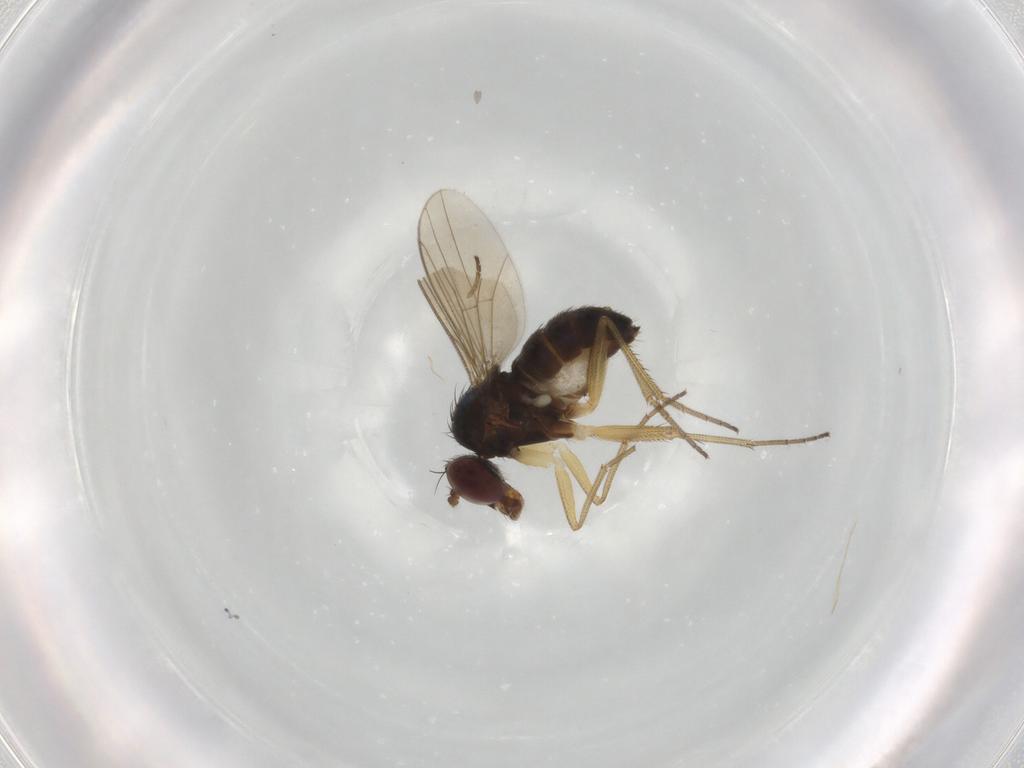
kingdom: Animalia
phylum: Arthropoda
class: Insecta
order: Diptera
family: Dolichopodidae
